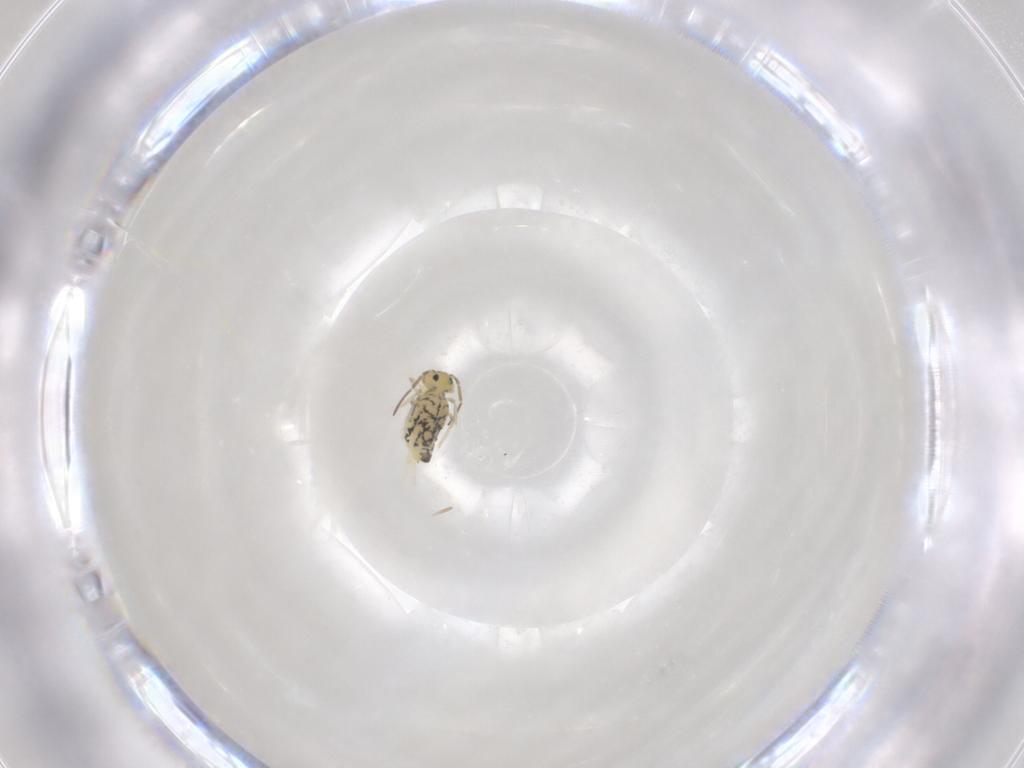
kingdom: Animalia
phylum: Arthropoda
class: Collembola
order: Symphypleona
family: Bourletiellidae
